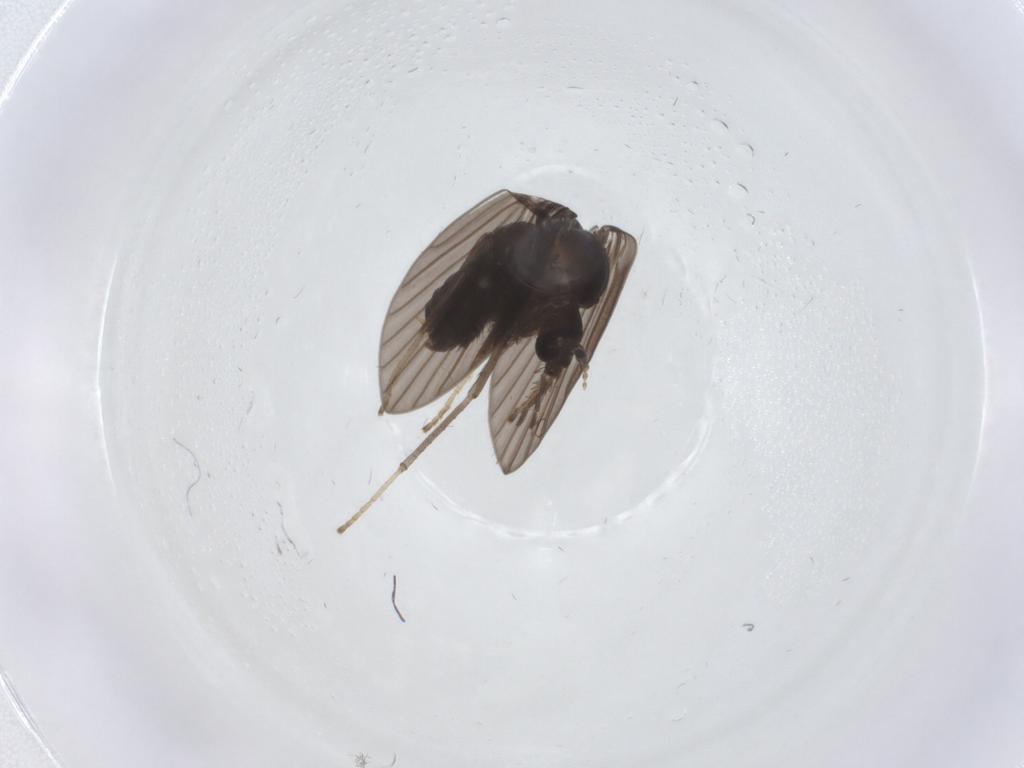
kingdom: Animalia
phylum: Arthropoda
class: Insecta
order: Diptera
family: Psychodidae
